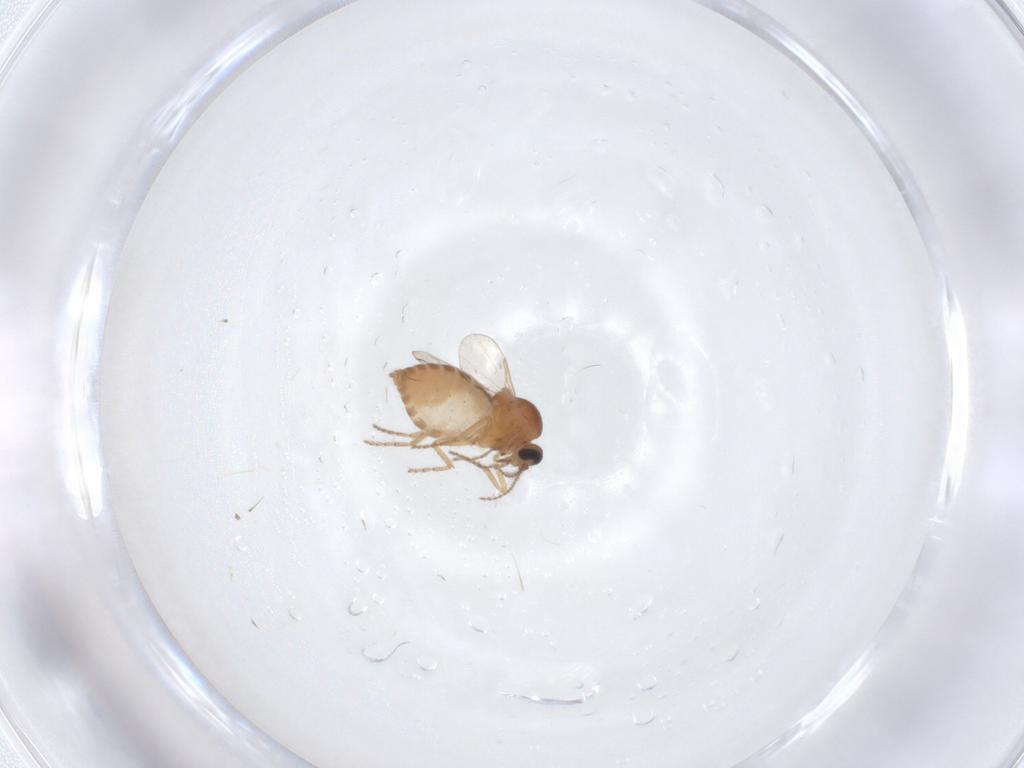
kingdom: Animalia
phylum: Arthropoda
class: Insecta
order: Diptera
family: Ceratopogonidae
